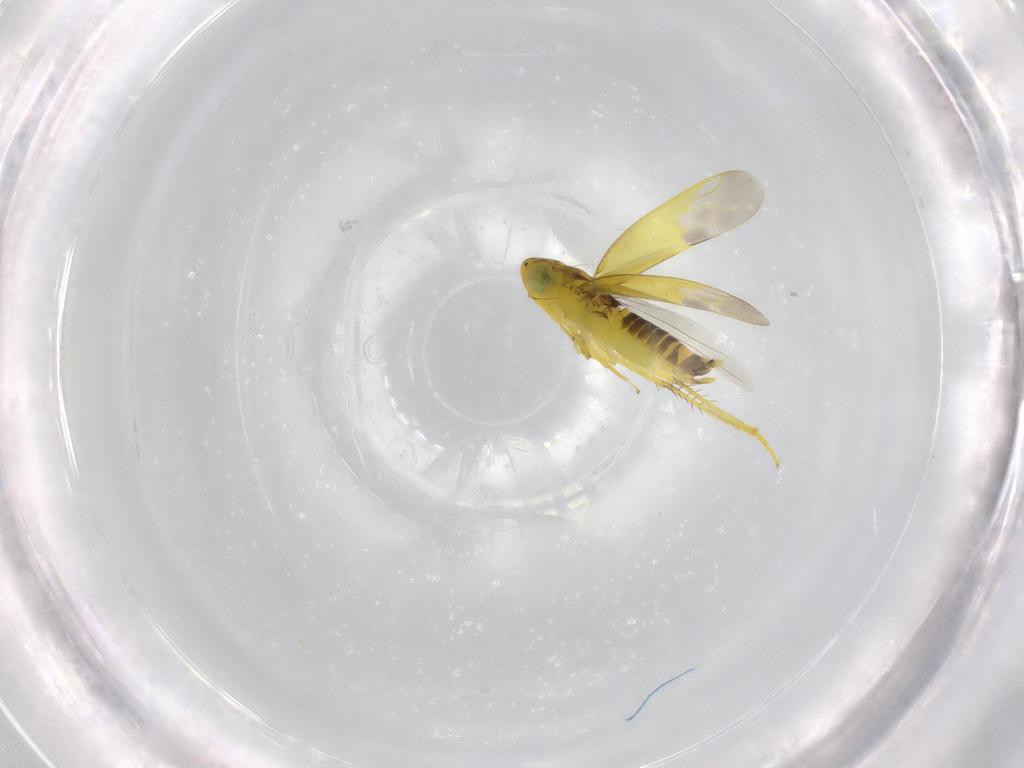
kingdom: Animalia
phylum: Arthropoda
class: Insecta
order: Hemiptera
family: Cicadellidae
